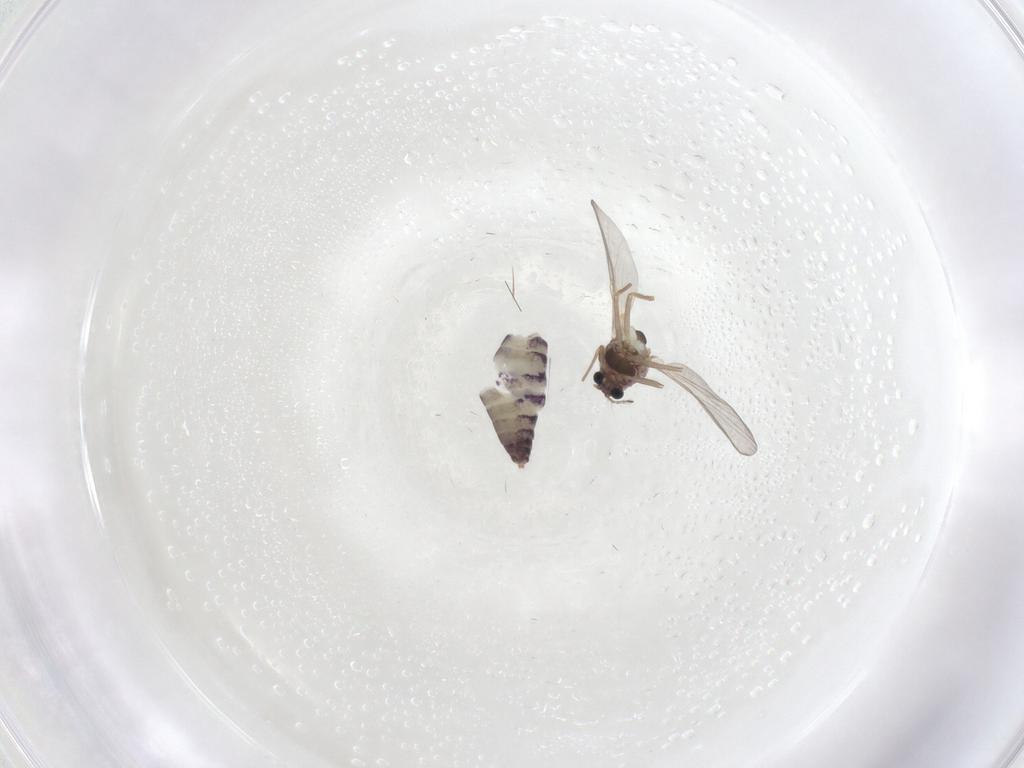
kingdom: Animalia
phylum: Arthropoda
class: Insecta
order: Diptera
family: Chironomidae
